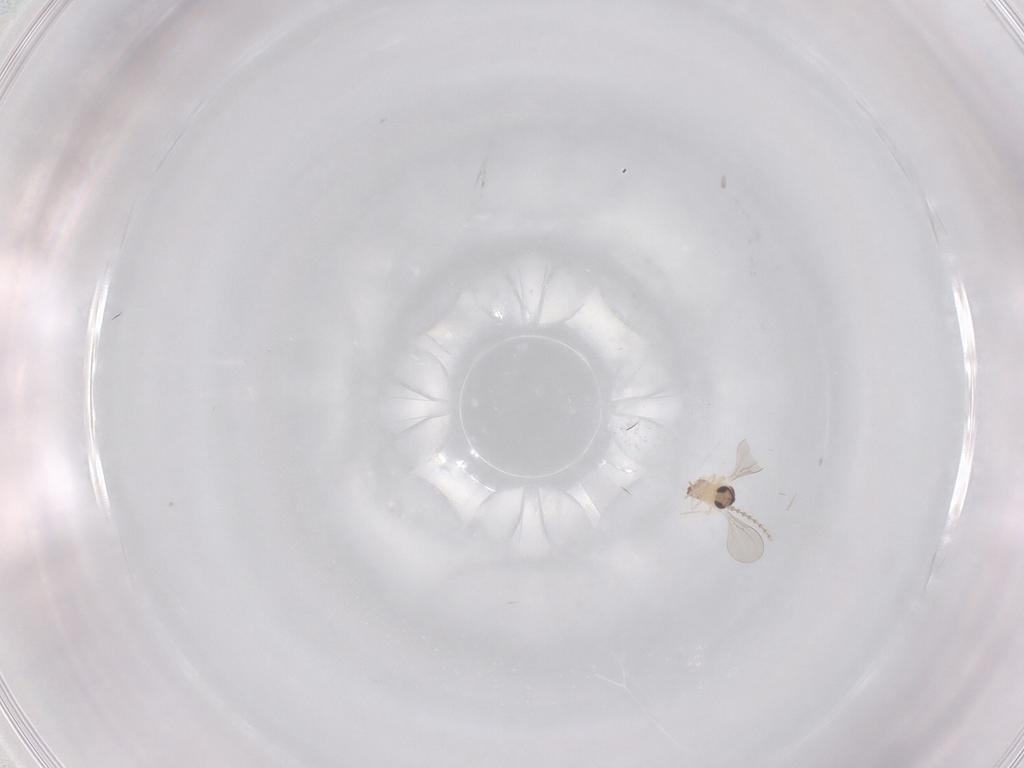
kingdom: Animalia
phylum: Arthropoda
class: Insecta
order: Diptera
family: Cecidomyiidae
